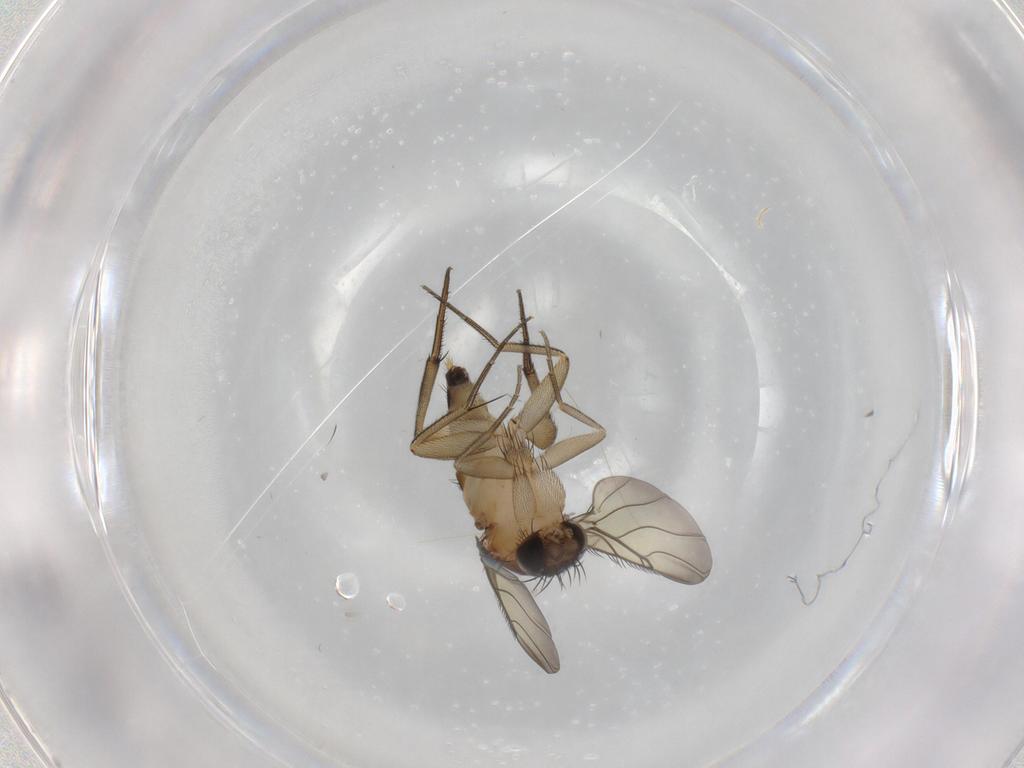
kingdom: Animalia
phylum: Arthropoda
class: Insecta
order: Diptera
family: Phoridae
